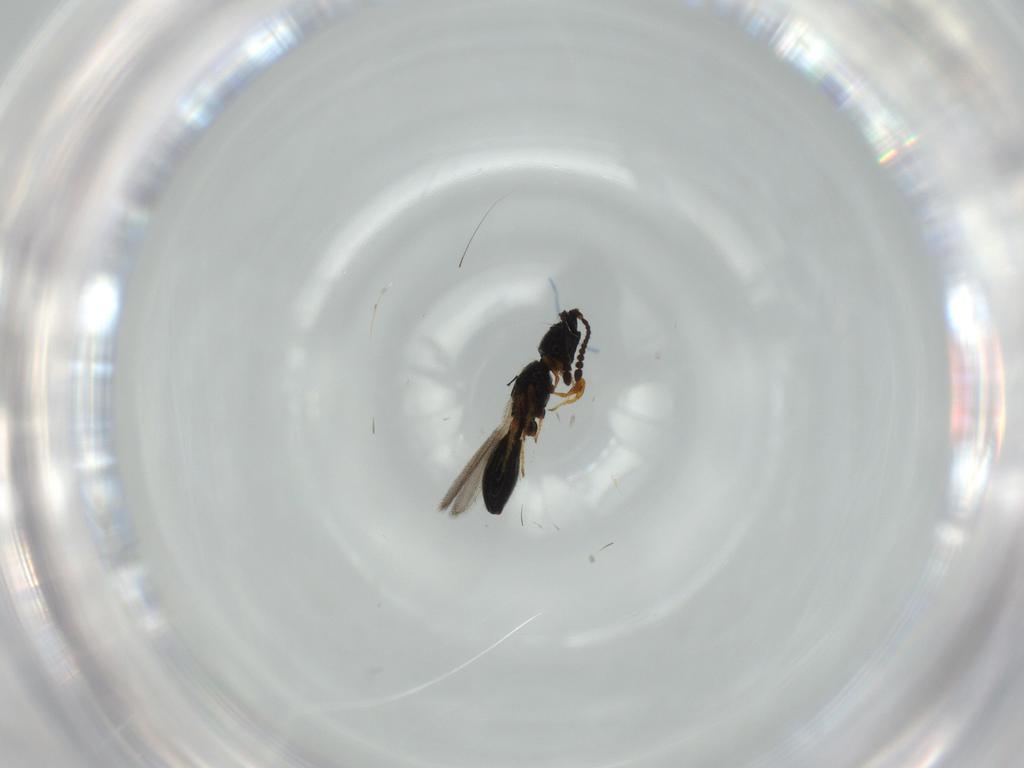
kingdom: Animalia
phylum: Arthropoda
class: Insecta
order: Hymenoptera
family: Diapriidae
